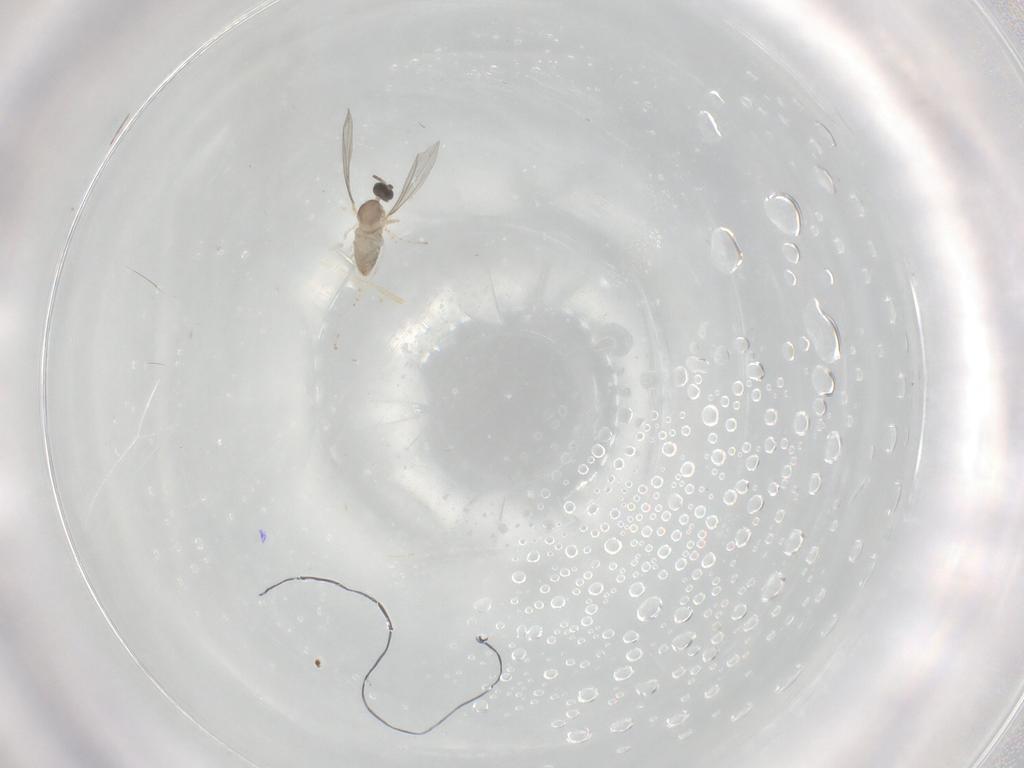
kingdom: Animalia
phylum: Arthropoda
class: Insecta
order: Diptera
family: Cecidomyiidae
